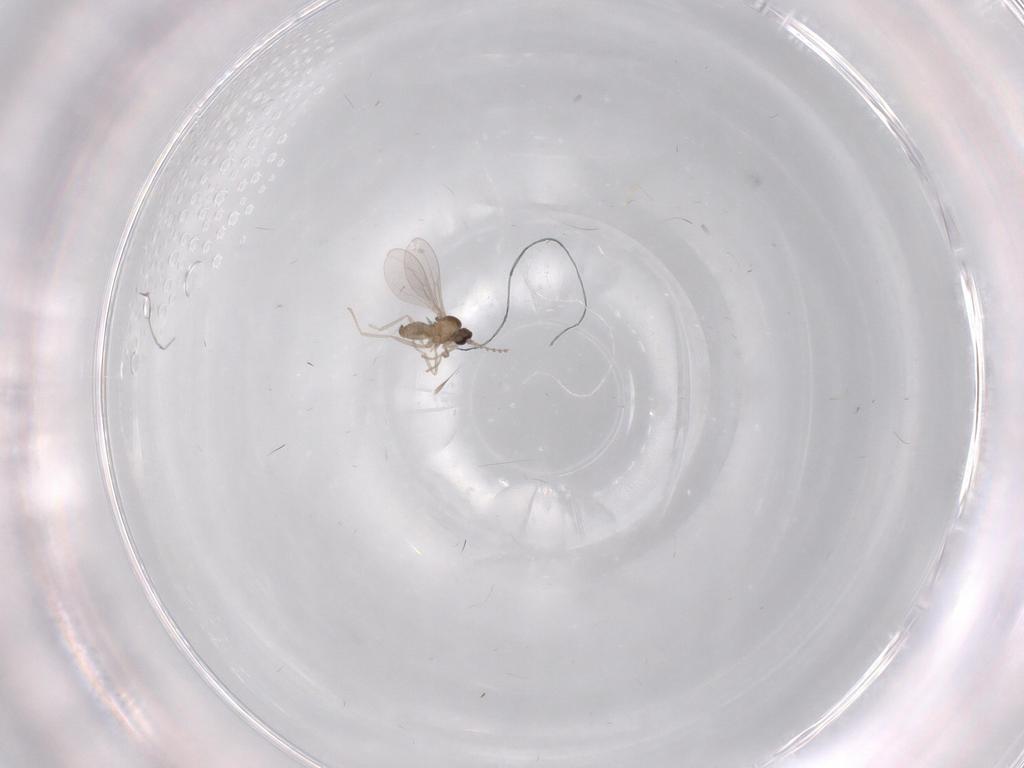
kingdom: Animalia
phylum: Arthropoda
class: Insecta
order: Diptera
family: Cecidomyiidae
